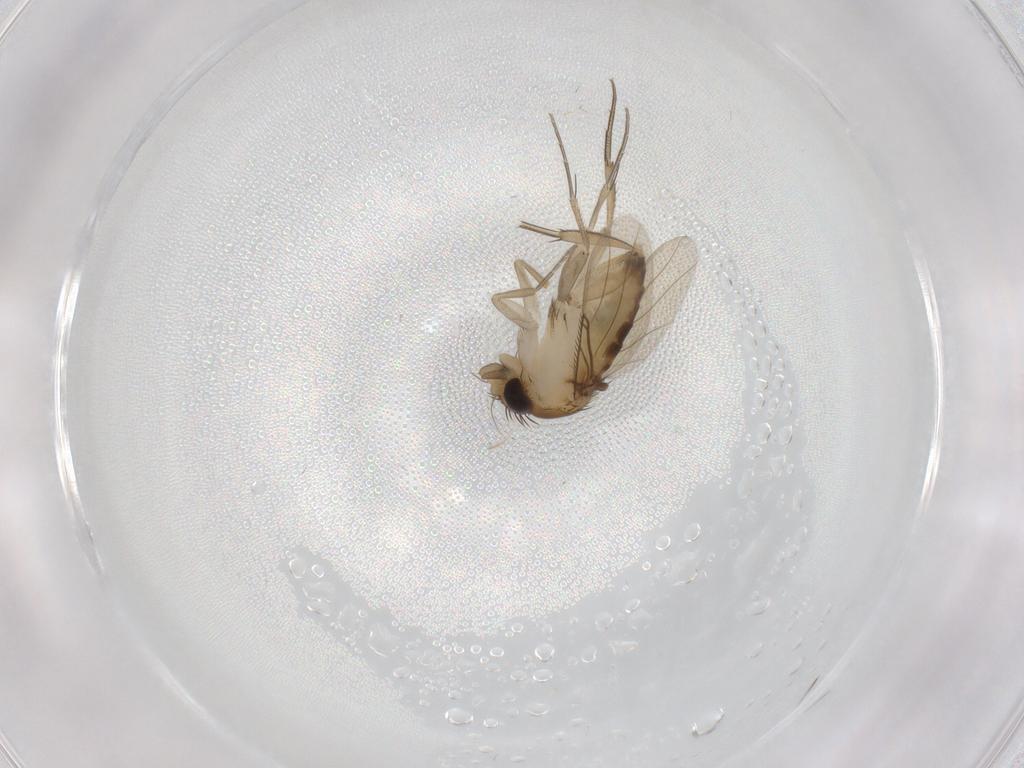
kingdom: Animalia
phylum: Arthropoda
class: Insecta
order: Diptera
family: Phoridae
